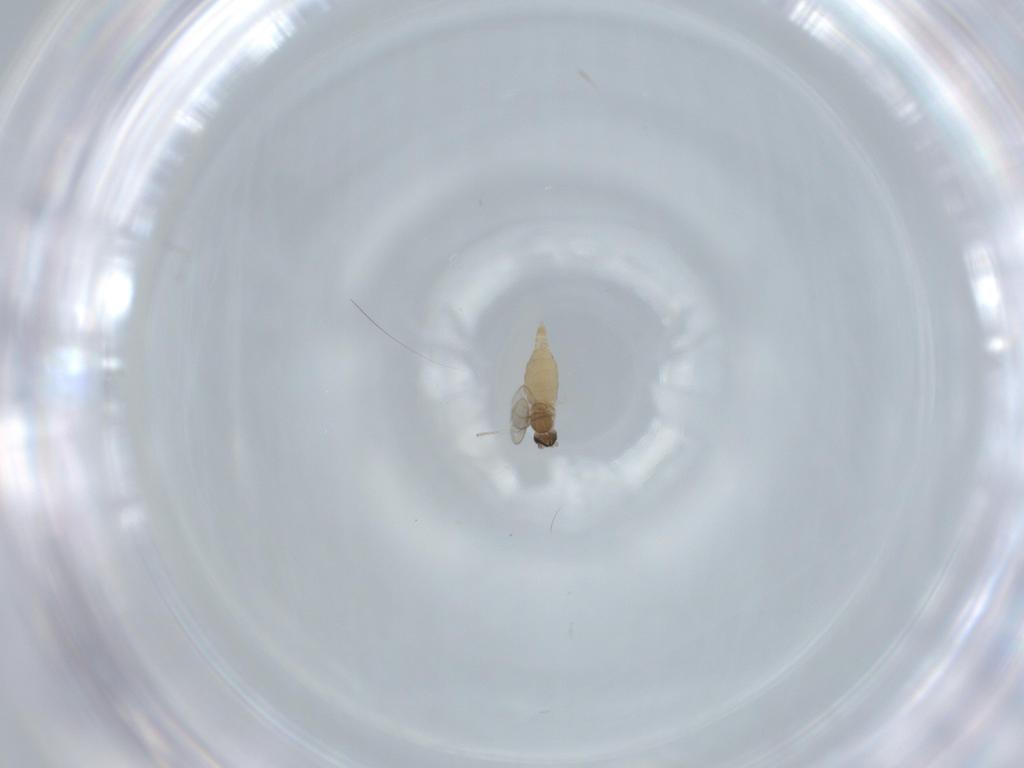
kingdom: Animalia
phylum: Arthropoda
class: Insecta
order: Diptera
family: Cecidomyiidae
